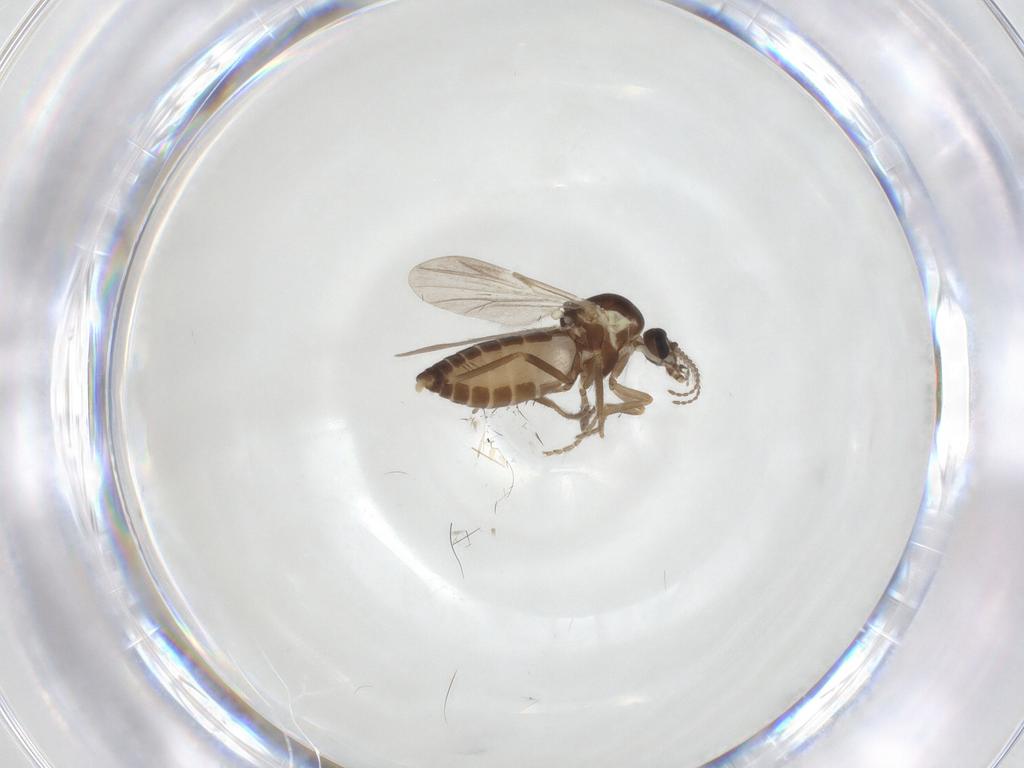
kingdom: Animalia
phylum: Arthropoda
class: Insecta
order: Diptera
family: Ceratopogonidae
